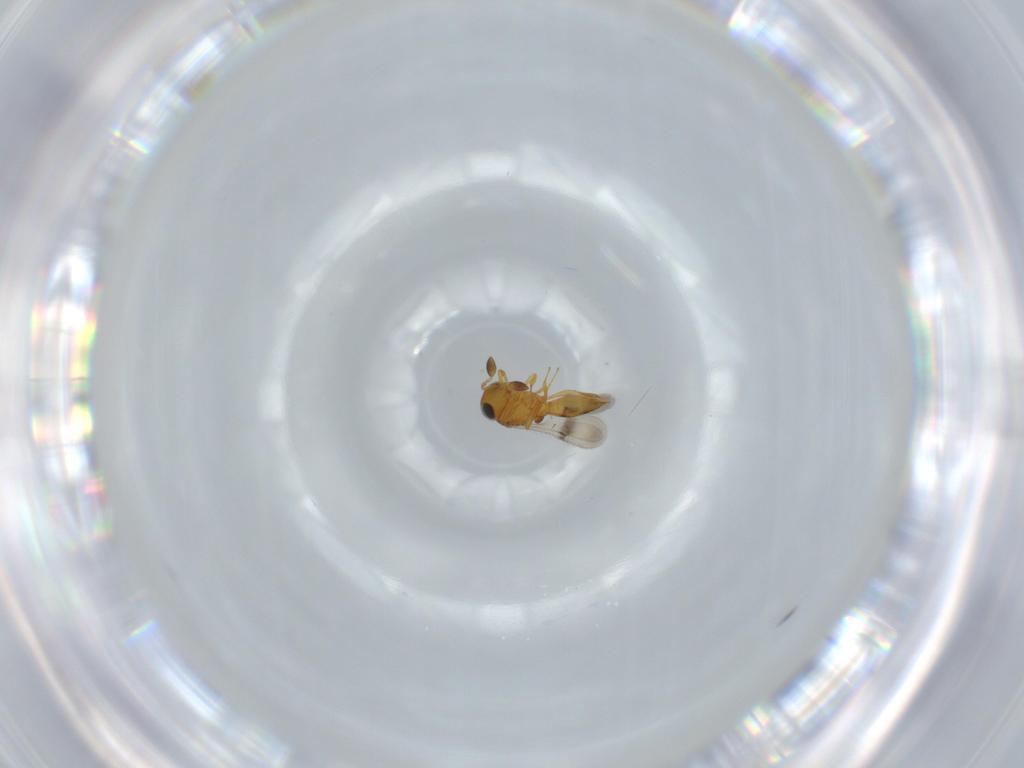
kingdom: Animalia
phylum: Arthropoda
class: Insecta
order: Hymenoptera
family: Scelionidae
